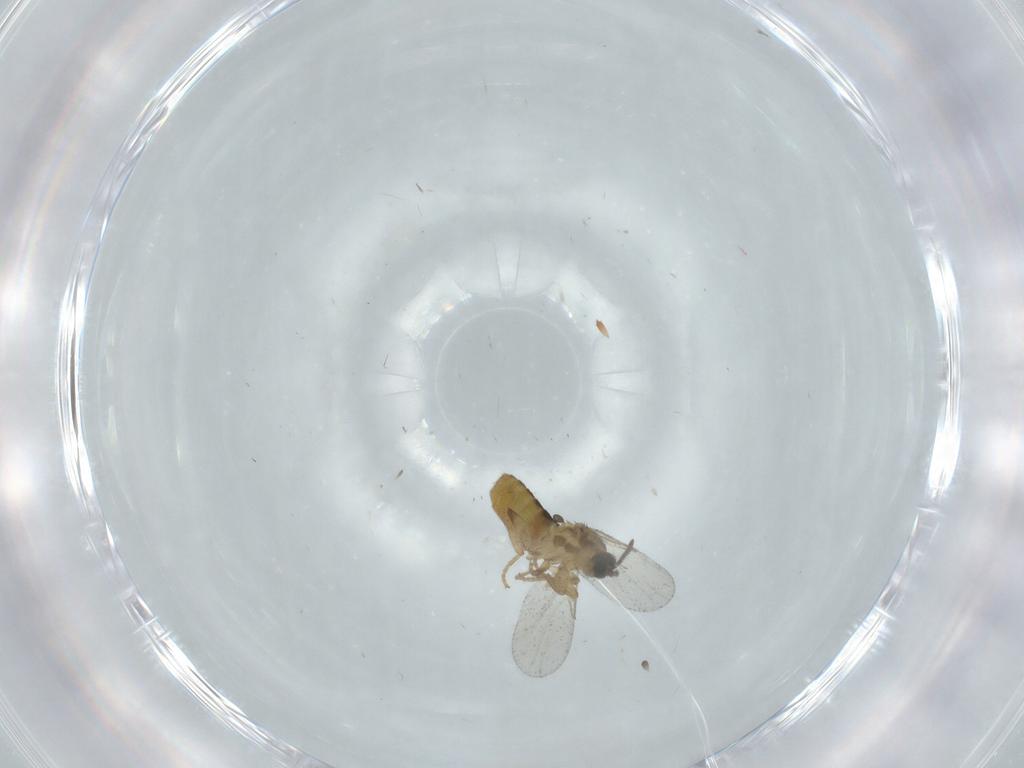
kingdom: Animalia
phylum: Arthropoda
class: Insecta
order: Diptera
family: Scatopsidae
